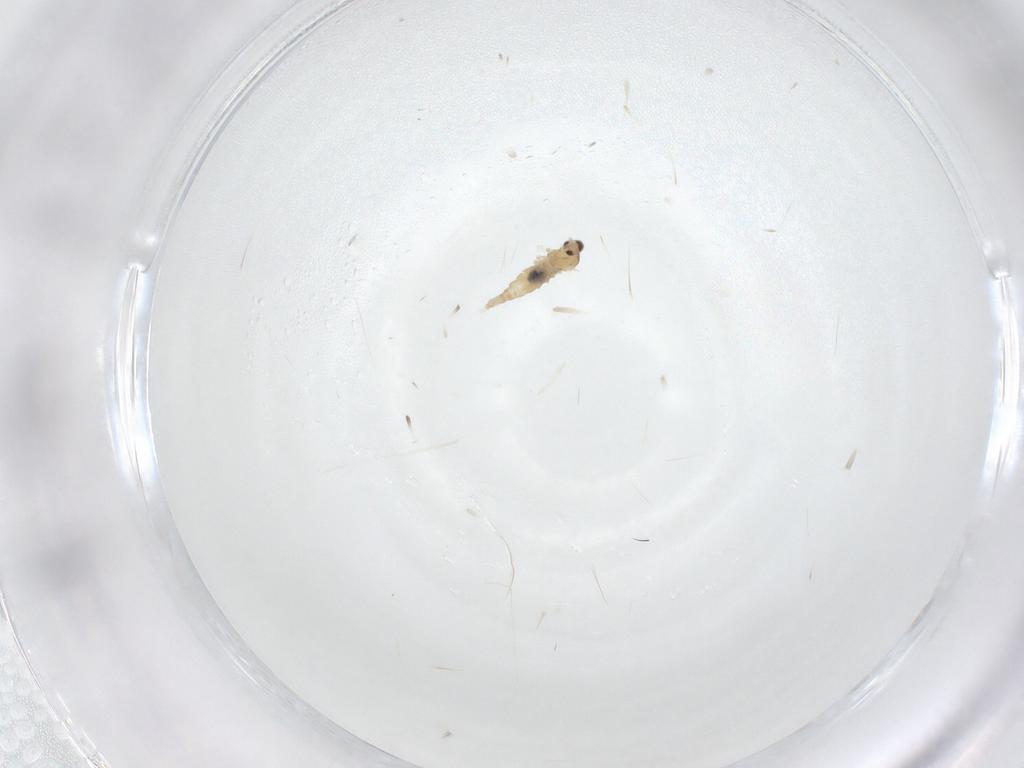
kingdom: Animalia
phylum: Arthropoda
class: Insecta
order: Diptera
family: Cecidomyiidae
